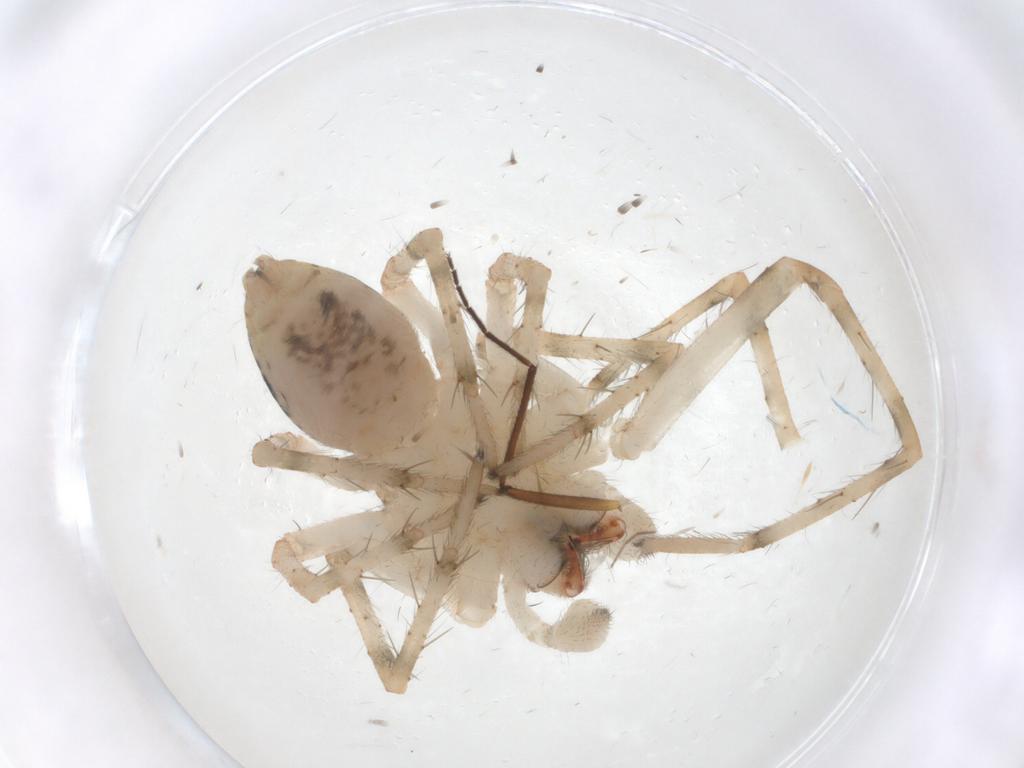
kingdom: Animalia
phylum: Arthropoda
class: Arachnida
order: Araneae
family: Dictynidae
